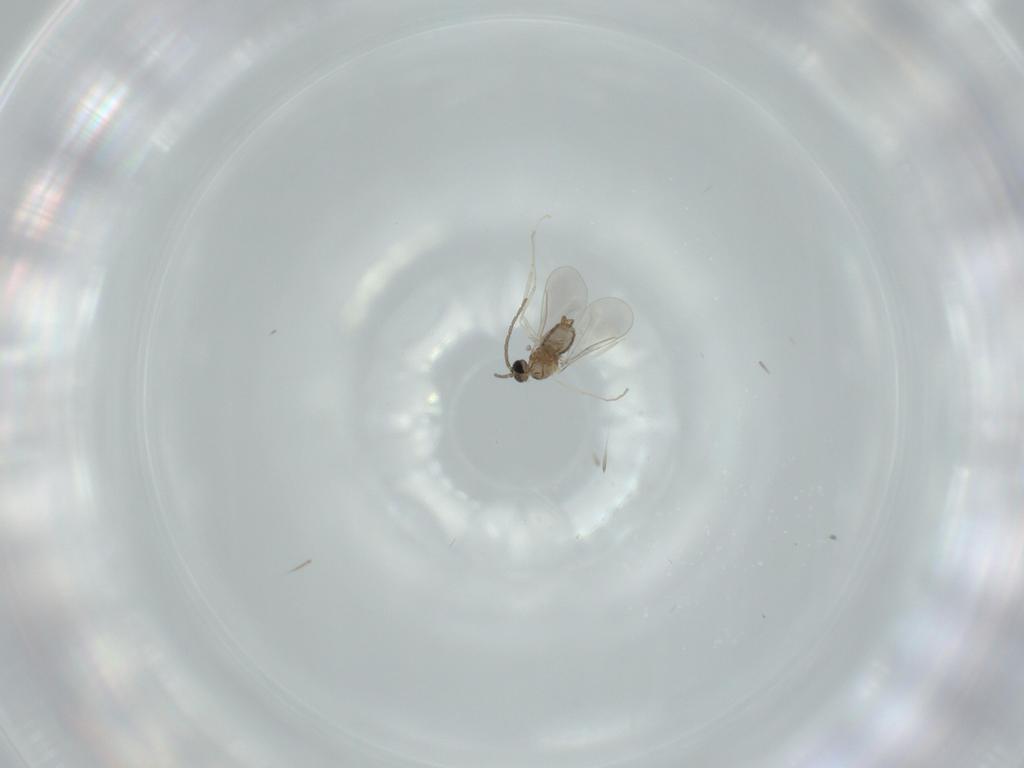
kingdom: Animalia
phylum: Arthropoda
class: Insecta
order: Diptera
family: Cecidomyiidae
